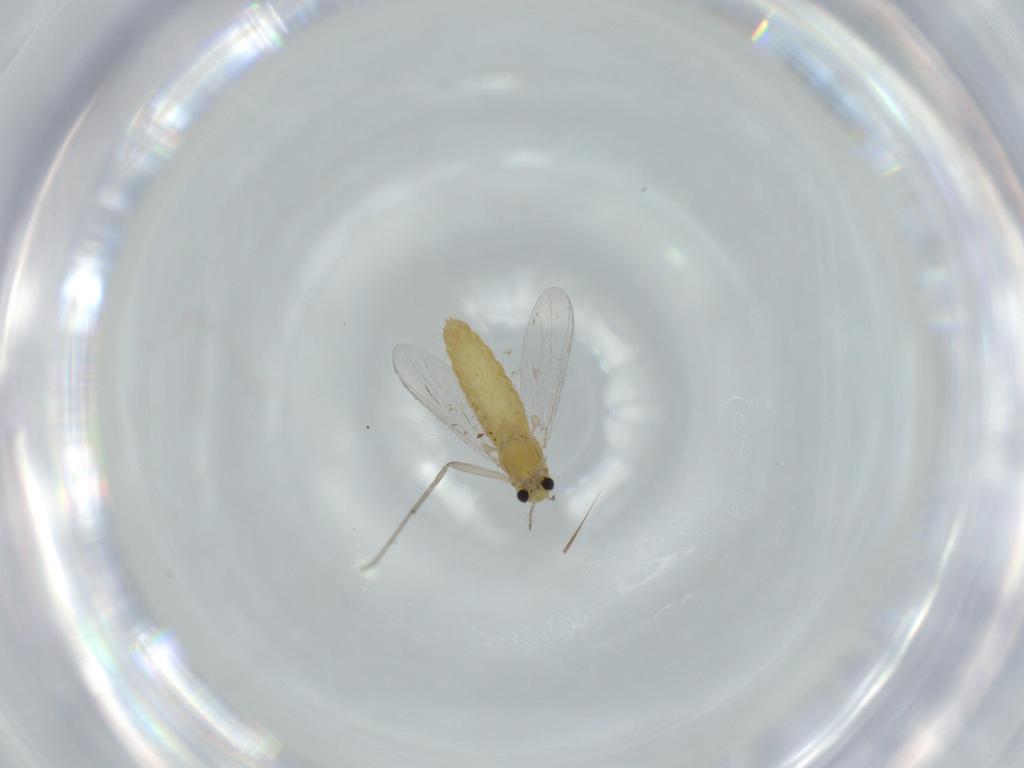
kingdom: Animalia
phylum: Arthropoda
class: Insecta
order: Diptera
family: Chironomidae
